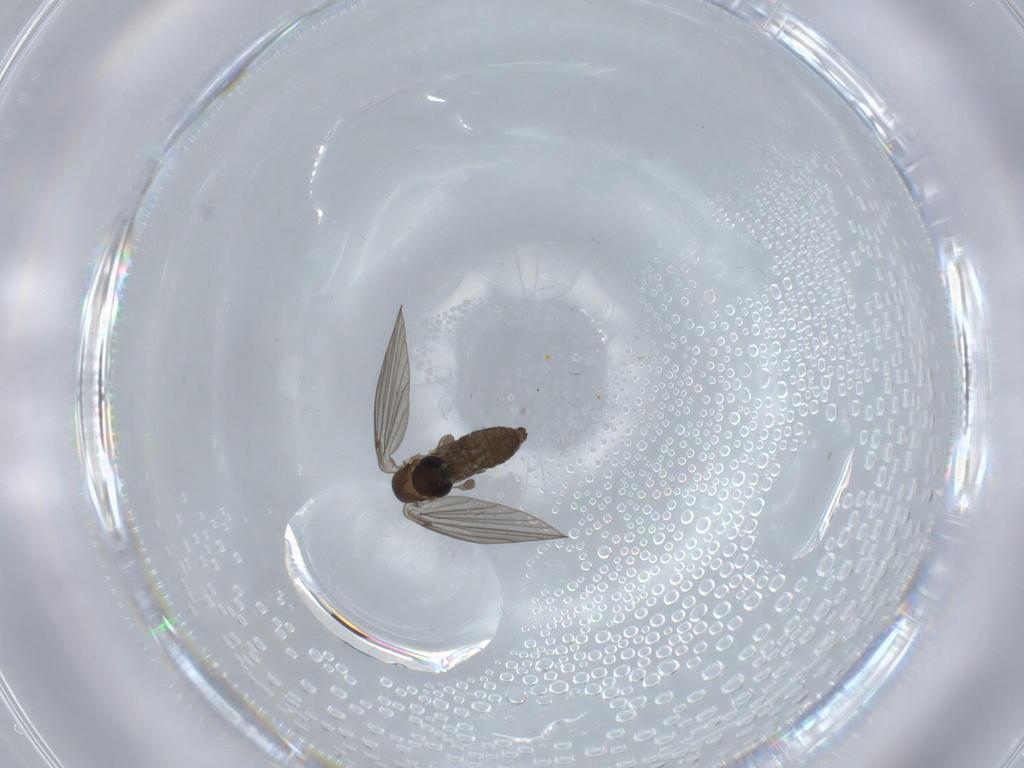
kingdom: Animalia
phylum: Arthropoda
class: Insecta
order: Diptera
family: Psychodidae
